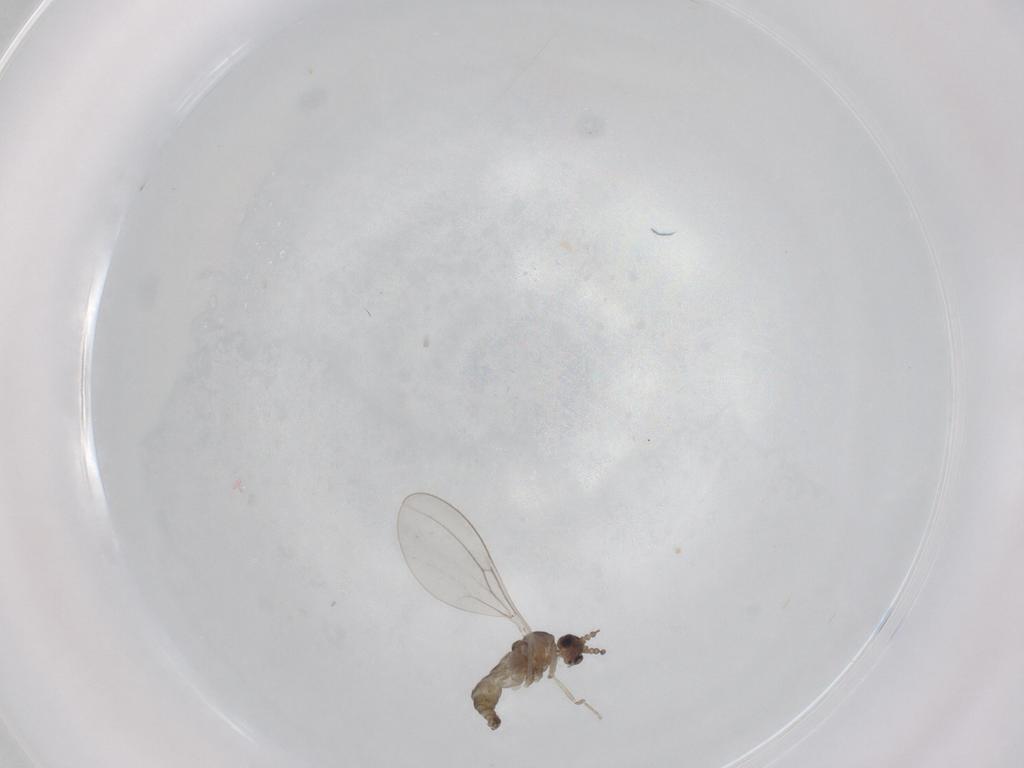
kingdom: Animalia
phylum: Arthropoda
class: Insecta
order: Diptera
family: Cecidomyiidae
